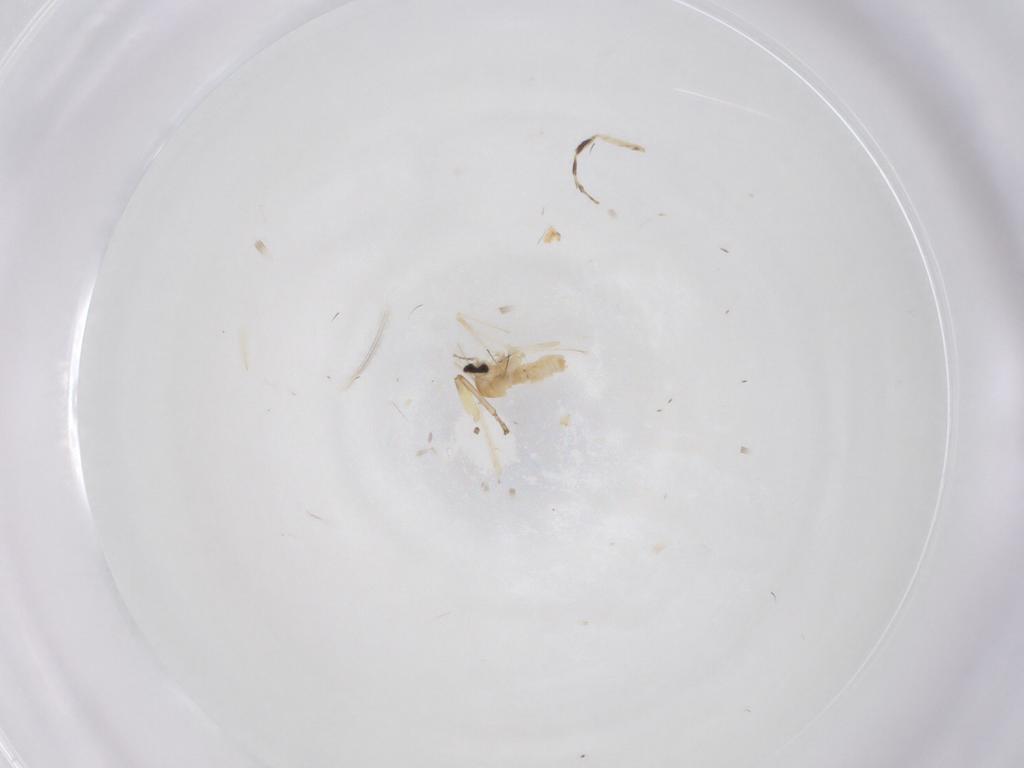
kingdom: Animalia
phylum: Arthropoda
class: Insecta
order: Diptera
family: Cecidomyiidae
